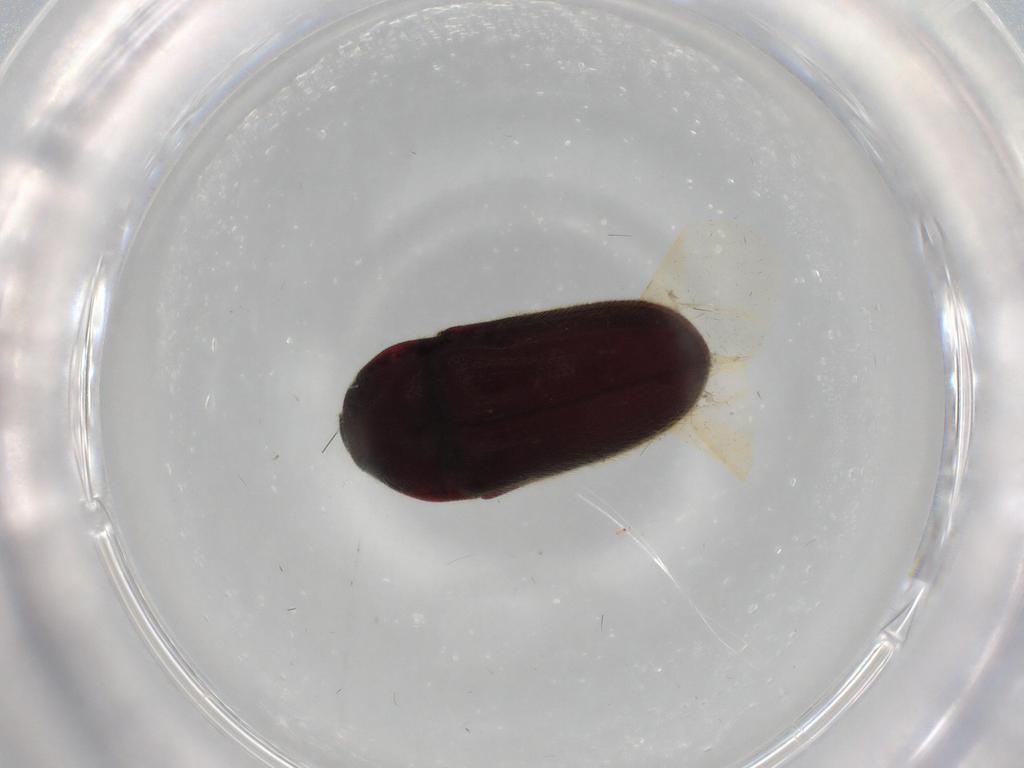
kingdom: Animalia
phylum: Arthropoda
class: Insecta
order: Coleoptera
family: Throscidae
